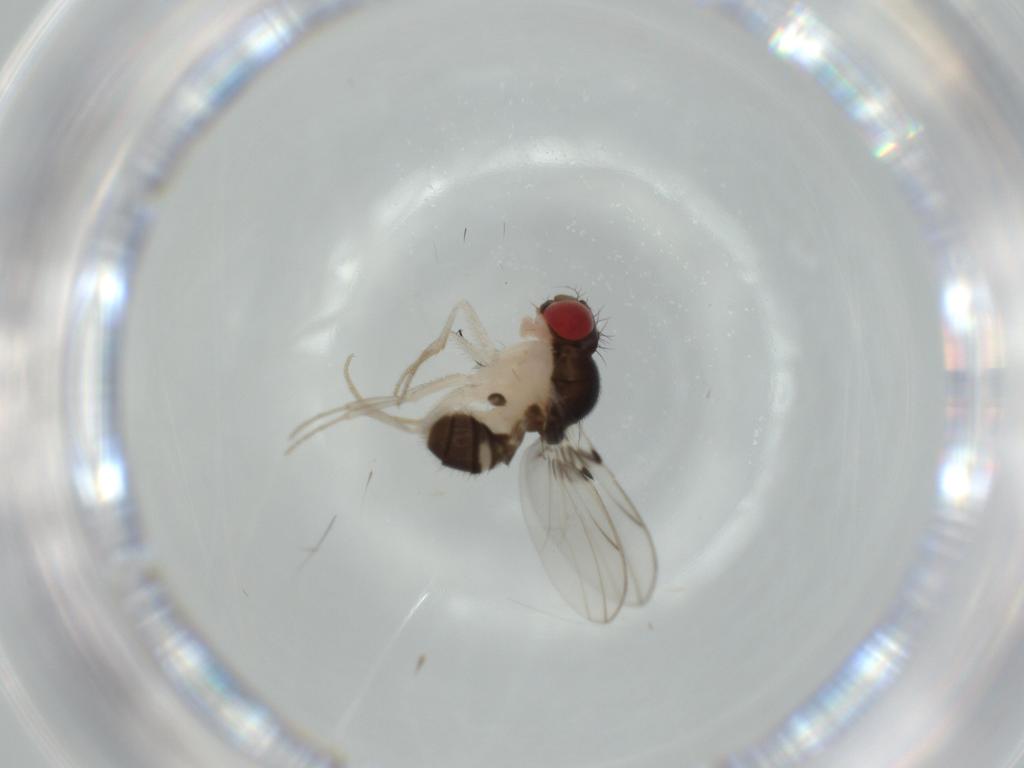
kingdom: Animalia
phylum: Arthropoda
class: Insecta
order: Diptera
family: Drosophilidae
